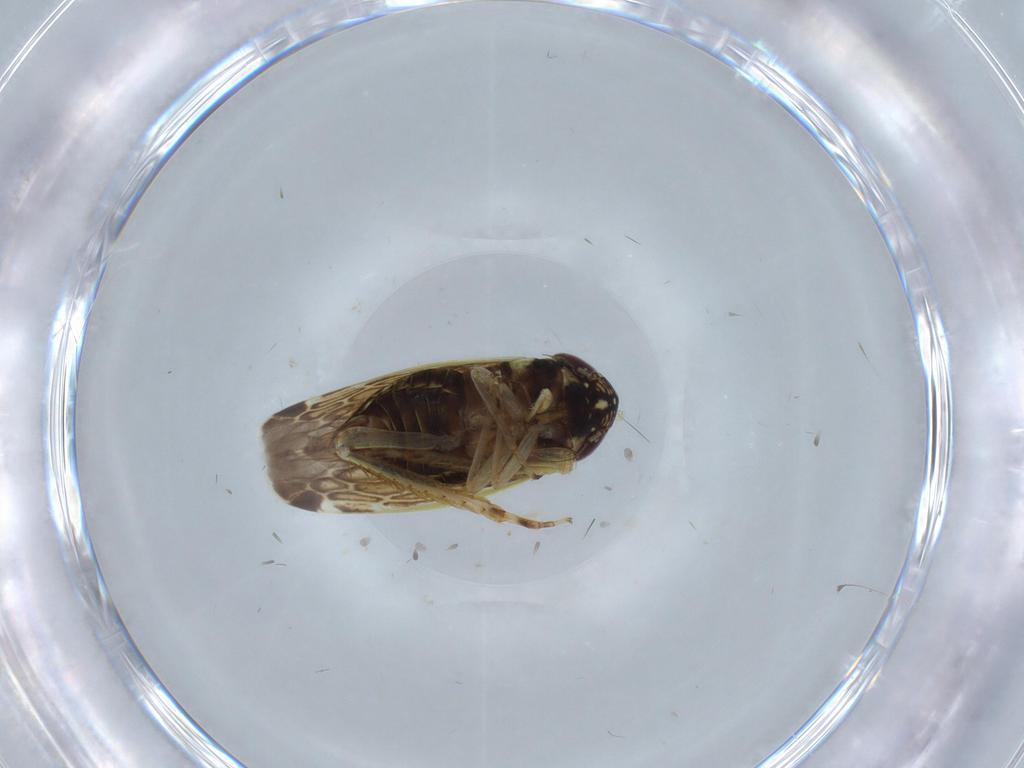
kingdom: Animalia
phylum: Arthropoda
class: Insecta
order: Hemiptera
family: Cicadellidae
